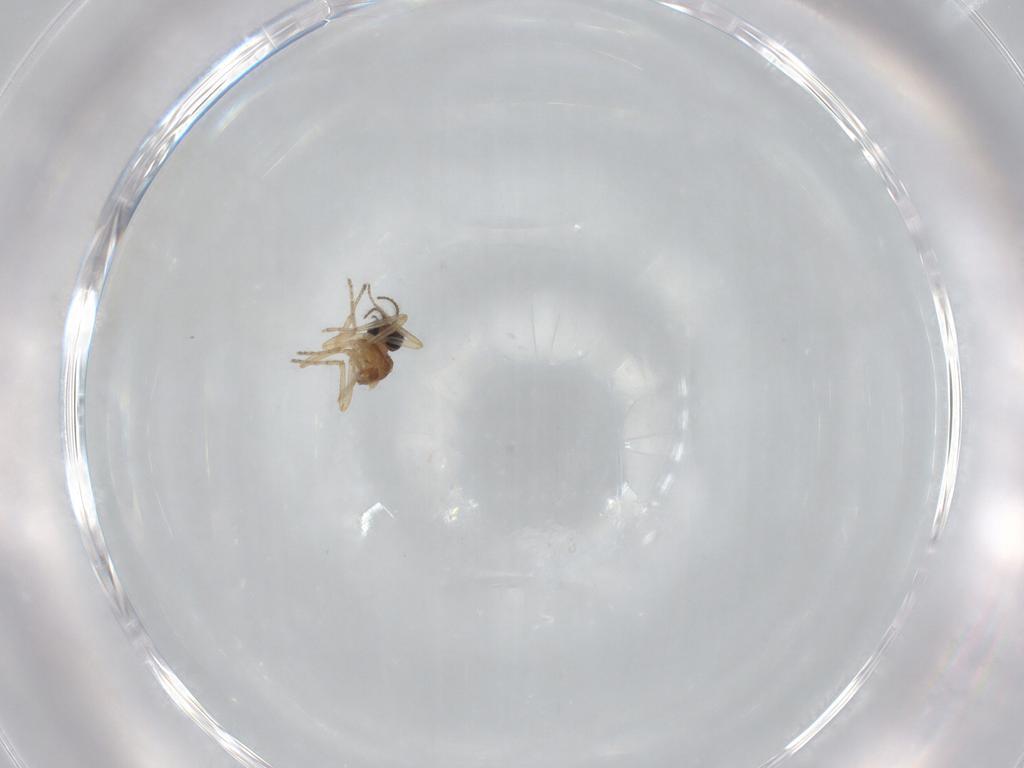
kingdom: Animalia
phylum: Arthropoda
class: Insecta
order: Diptera
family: Ceratopogonidae
